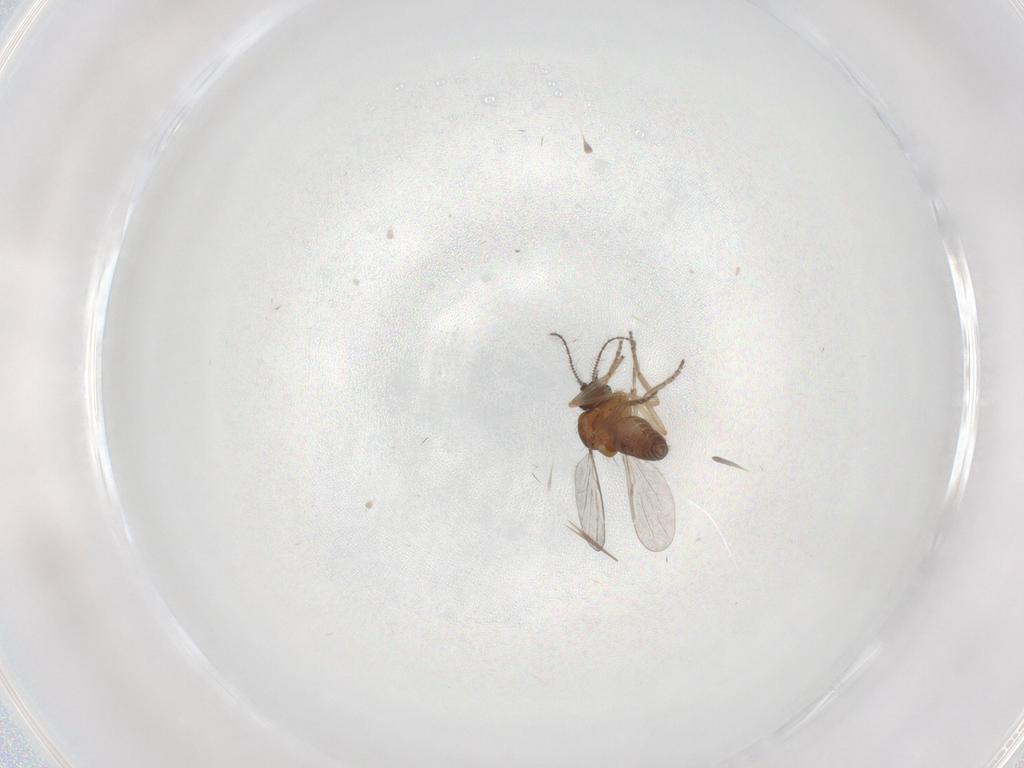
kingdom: Animalia
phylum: Arthropoda
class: Insecta
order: Diptera
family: Ceratopogonidae
